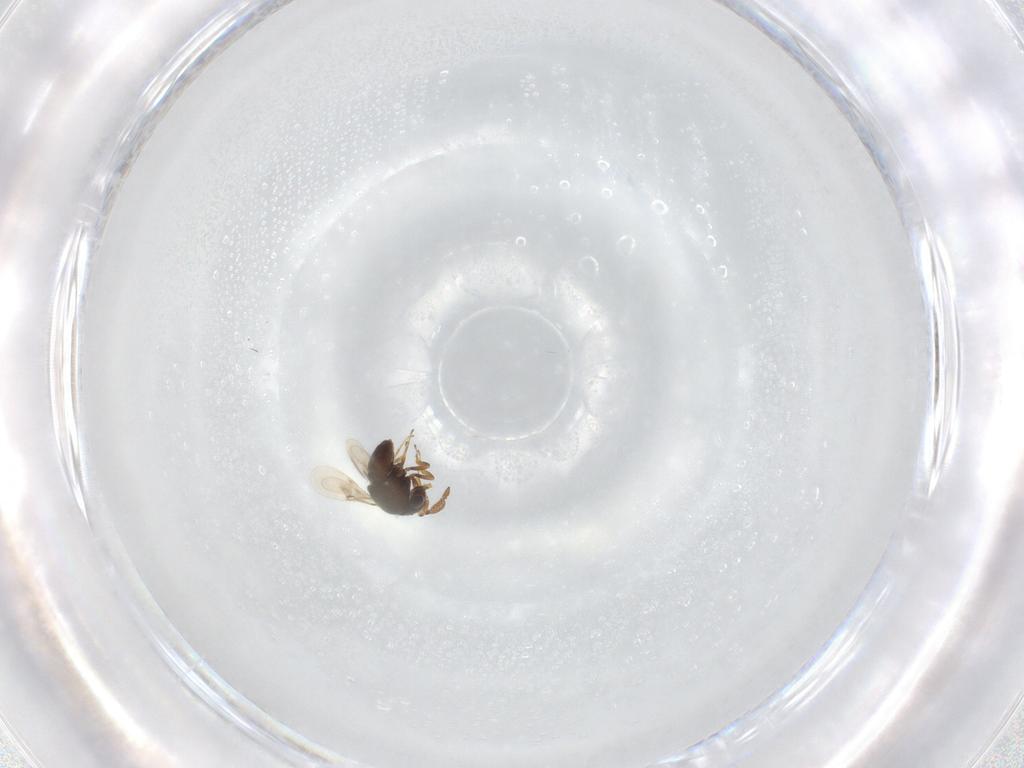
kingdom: Animalia
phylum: Arthropoda
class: Insecta
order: Hymenoptera
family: Scelionidae
